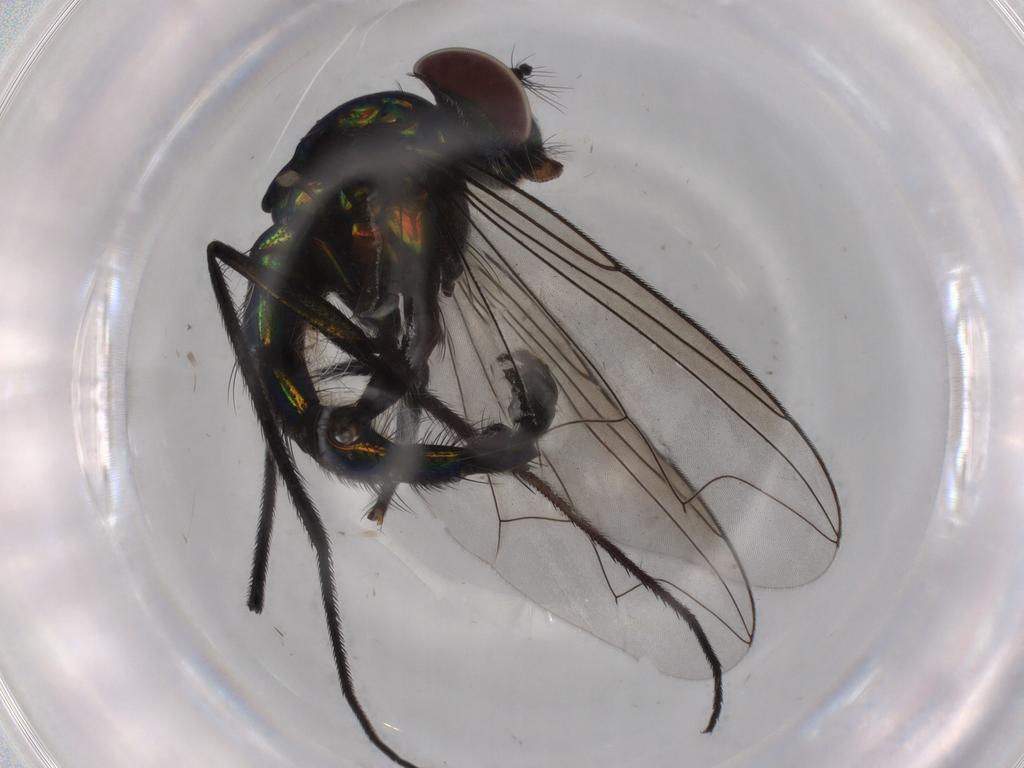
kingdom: Animalia
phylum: Arthropoda
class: Insecta
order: Diptera
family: Dolichopodidae
